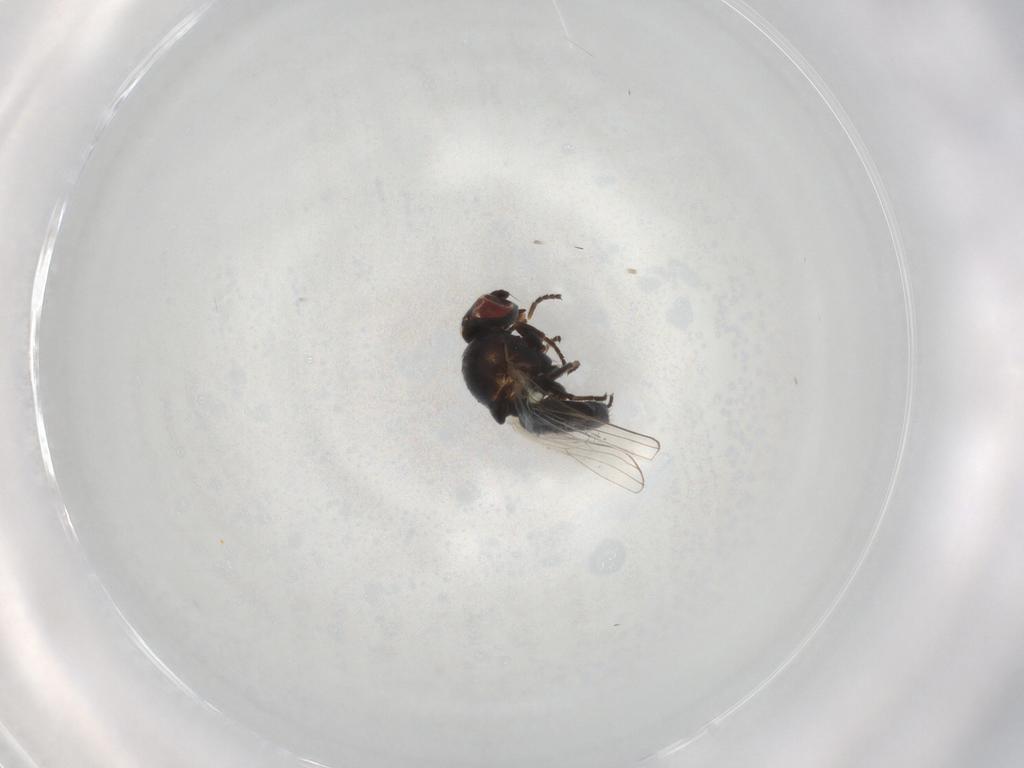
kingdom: Animalia
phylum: Arthropoda
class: Insecta
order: Diptera
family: Chamaemyiidae
